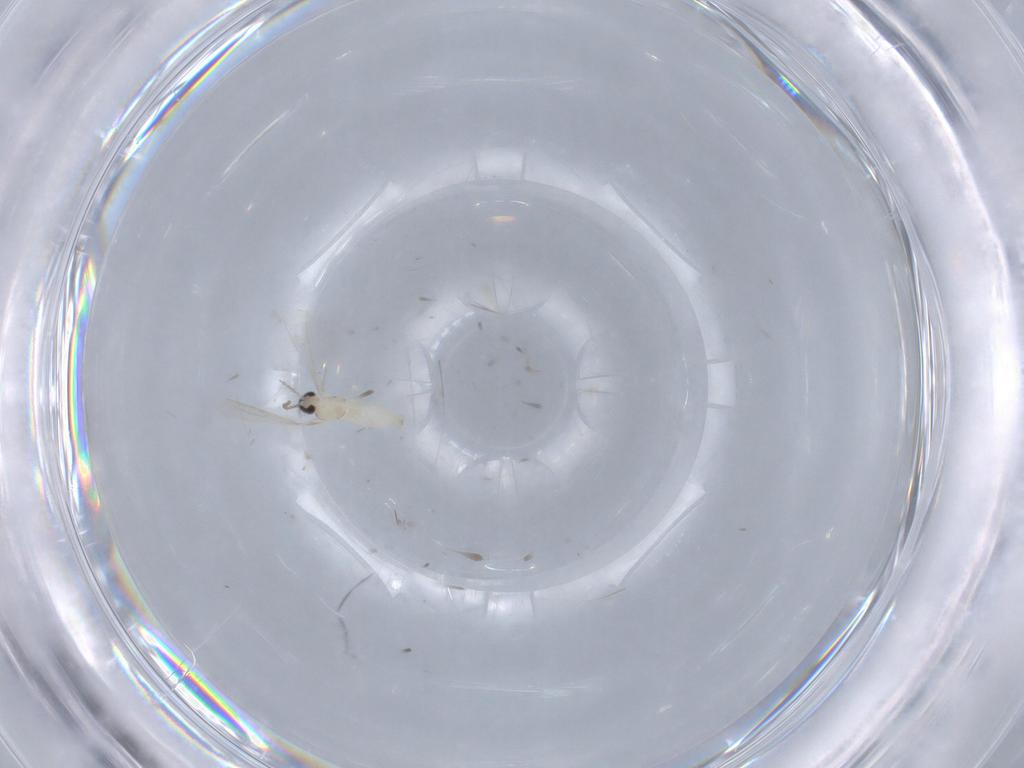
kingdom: Animalia
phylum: Arthropoda
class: Insecta
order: Diptera
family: Cecidomyiidae
